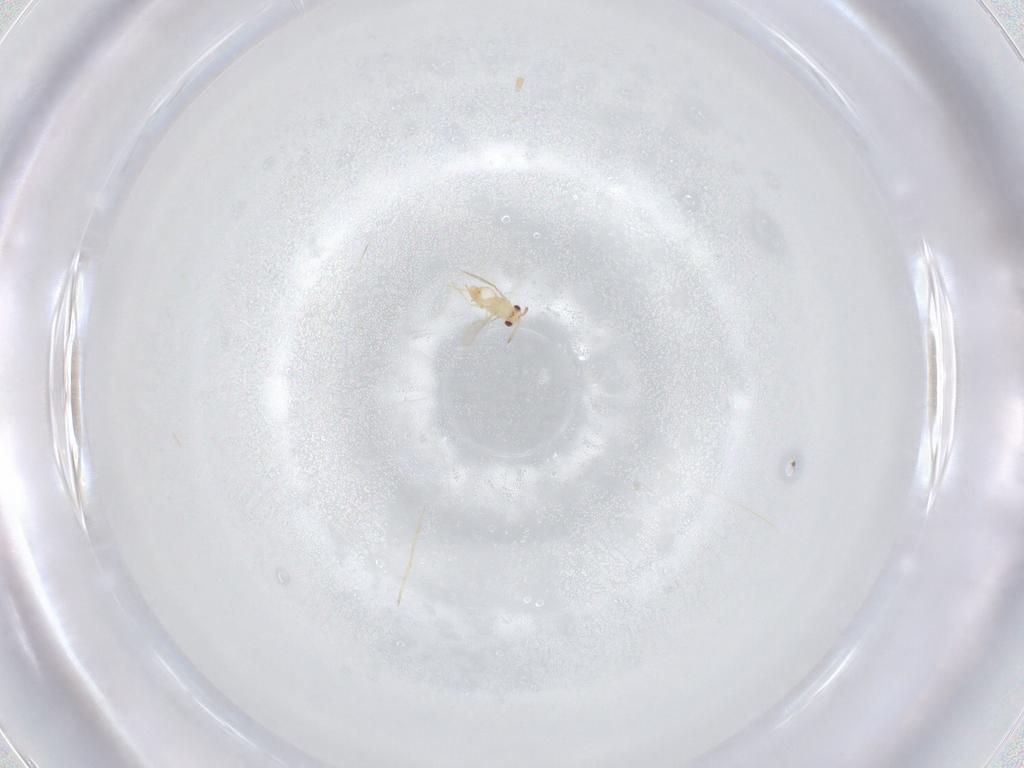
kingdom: Animalia
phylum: Arthropoda
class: Insecta
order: Hymenoptera
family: Aphelinidae
